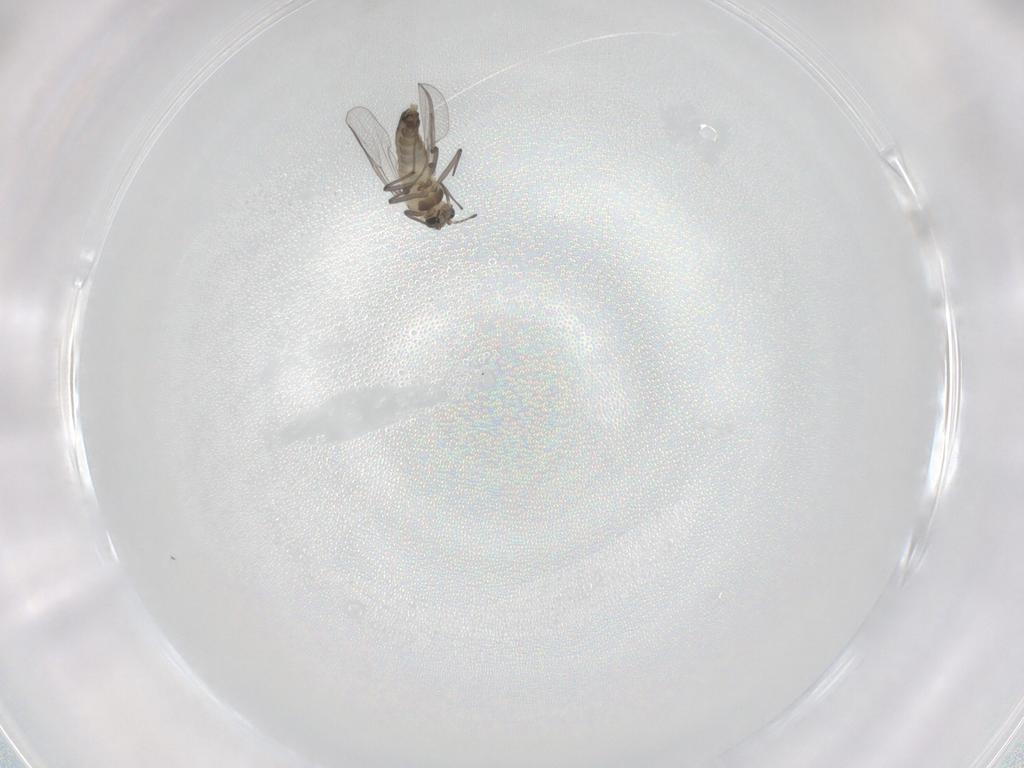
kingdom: Animalia
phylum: Arthropoda
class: Insecta
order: Diptera
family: Chironomidae
